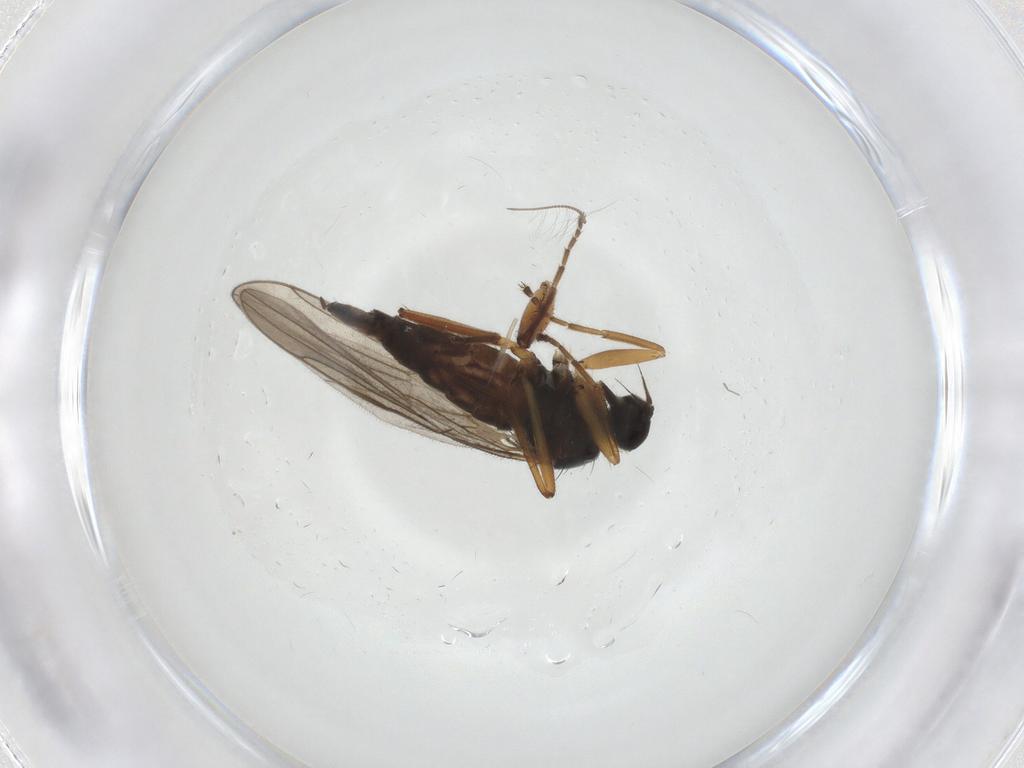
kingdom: Animalia
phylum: Arthropoda
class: Insecta
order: Diptera
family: Hybotidae
